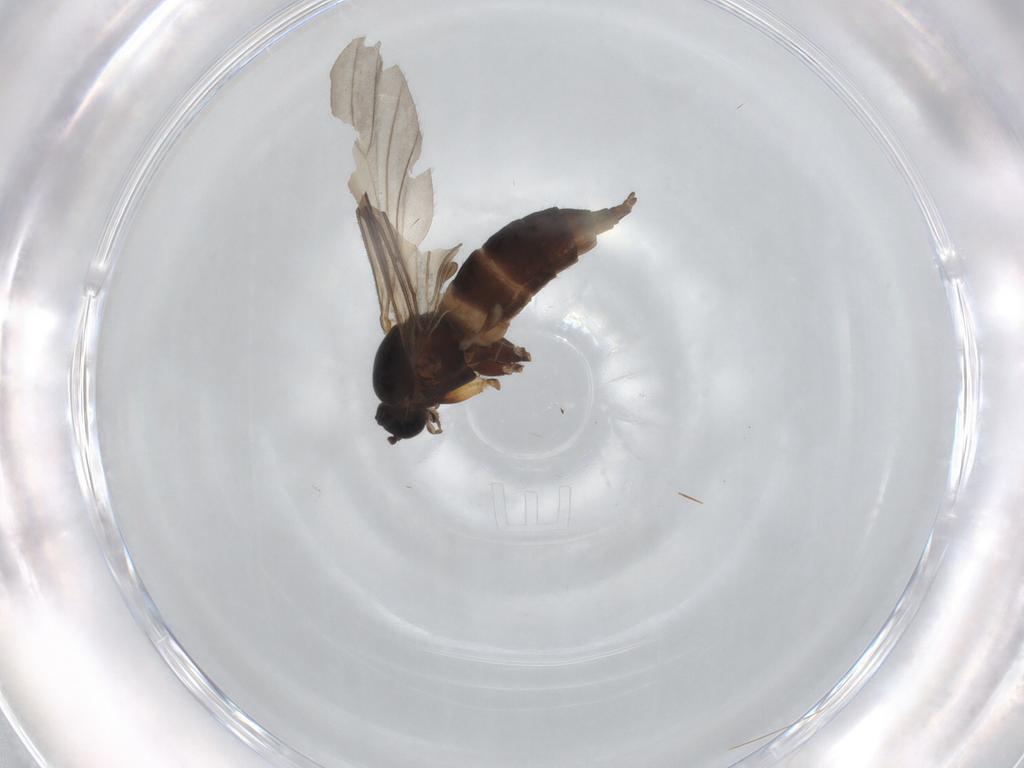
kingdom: Animalia
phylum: Arthropoda
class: Insecta
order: Diptera
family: Sciaridae
